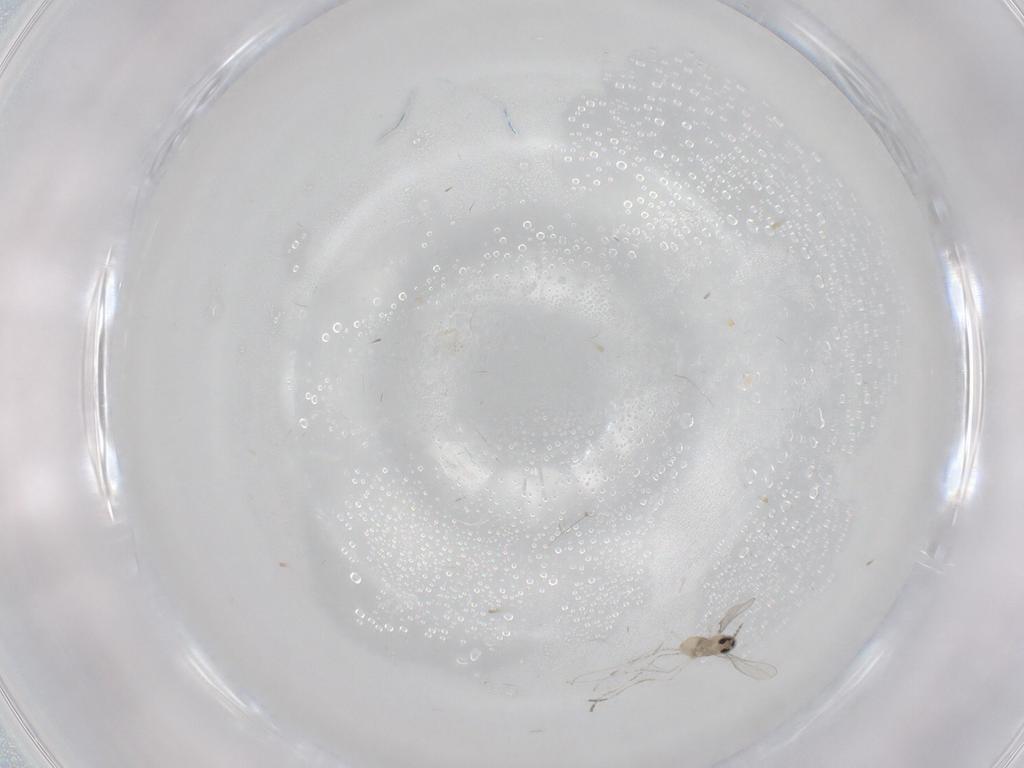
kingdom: Animalia
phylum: Arthropoda
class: Insecta
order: Diptera
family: Cecidomyiidae
